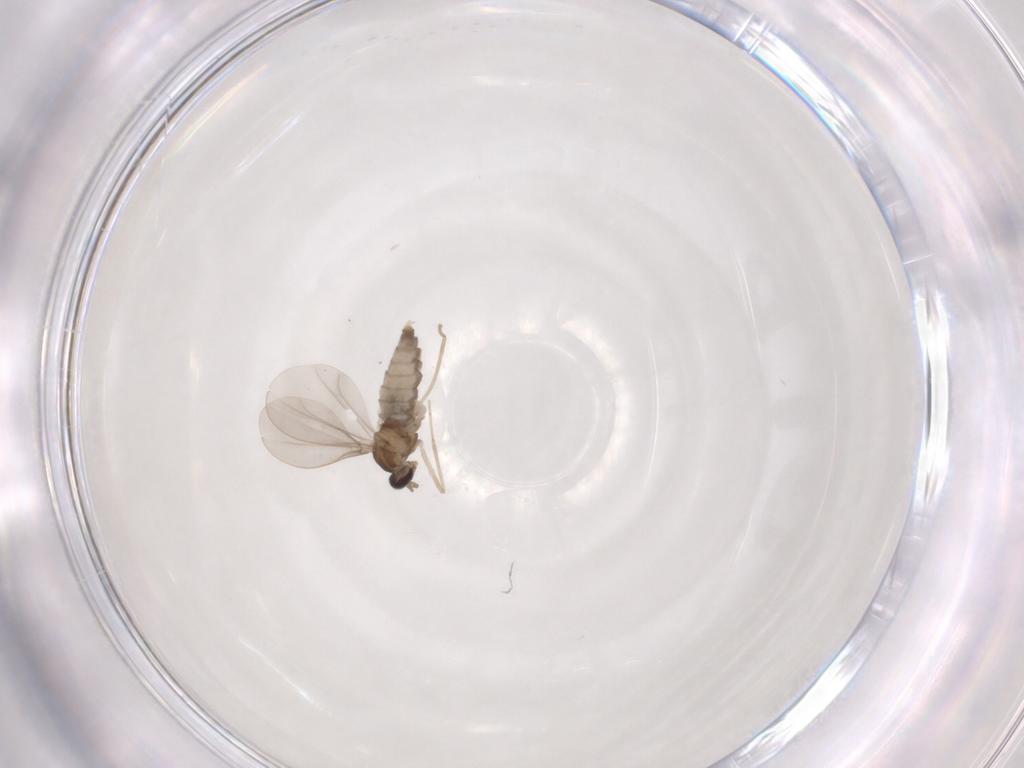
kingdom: Animalia
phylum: Arthropoda
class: Insecta
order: Diptera
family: Cecidomyiidae
